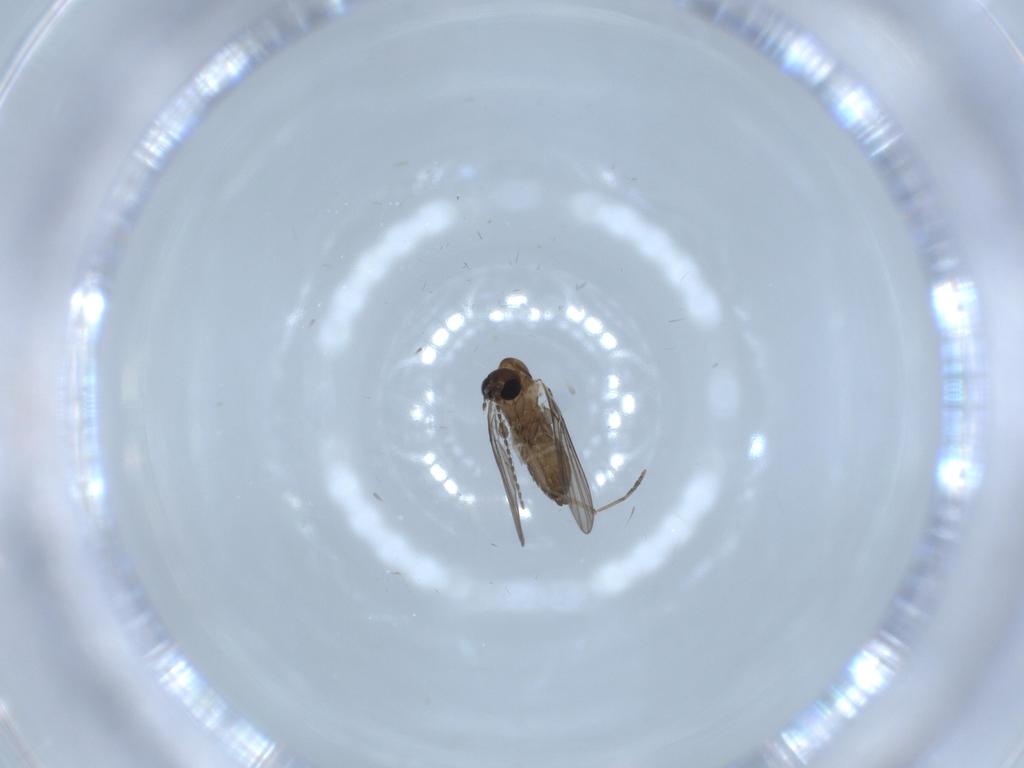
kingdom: Animalia
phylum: Arthropoda
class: Insecta
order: Diptera
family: Psychodidae
